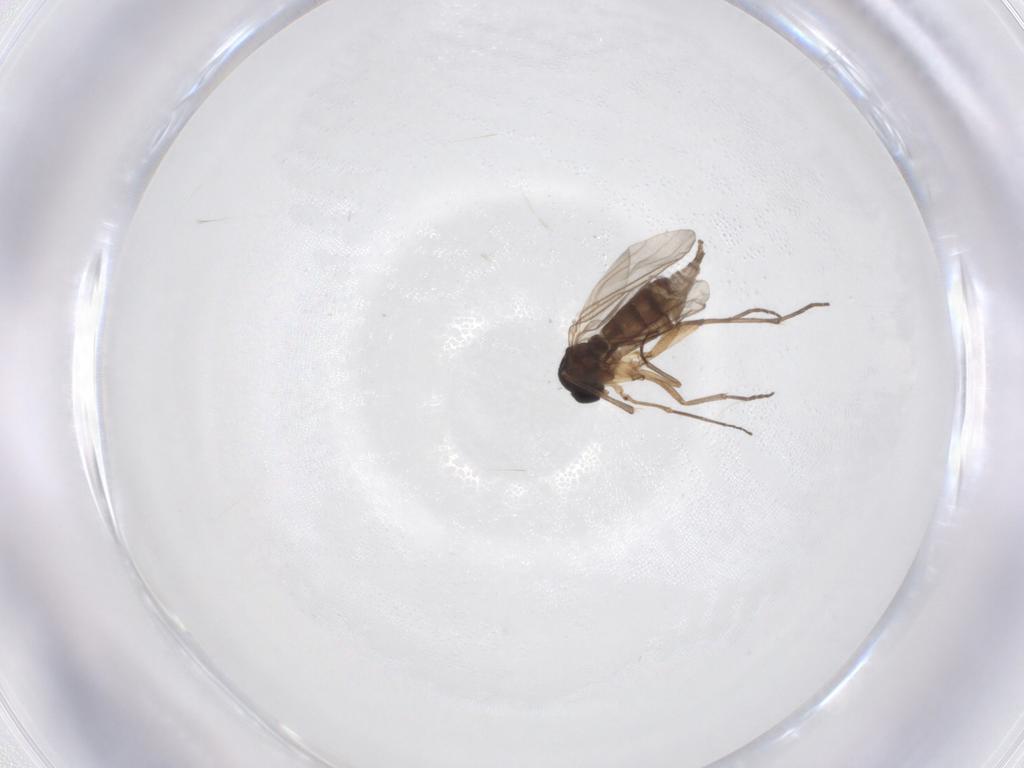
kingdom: Animalia
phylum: Arthropoda
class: Insecta
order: Diptera
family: Sciaridae
